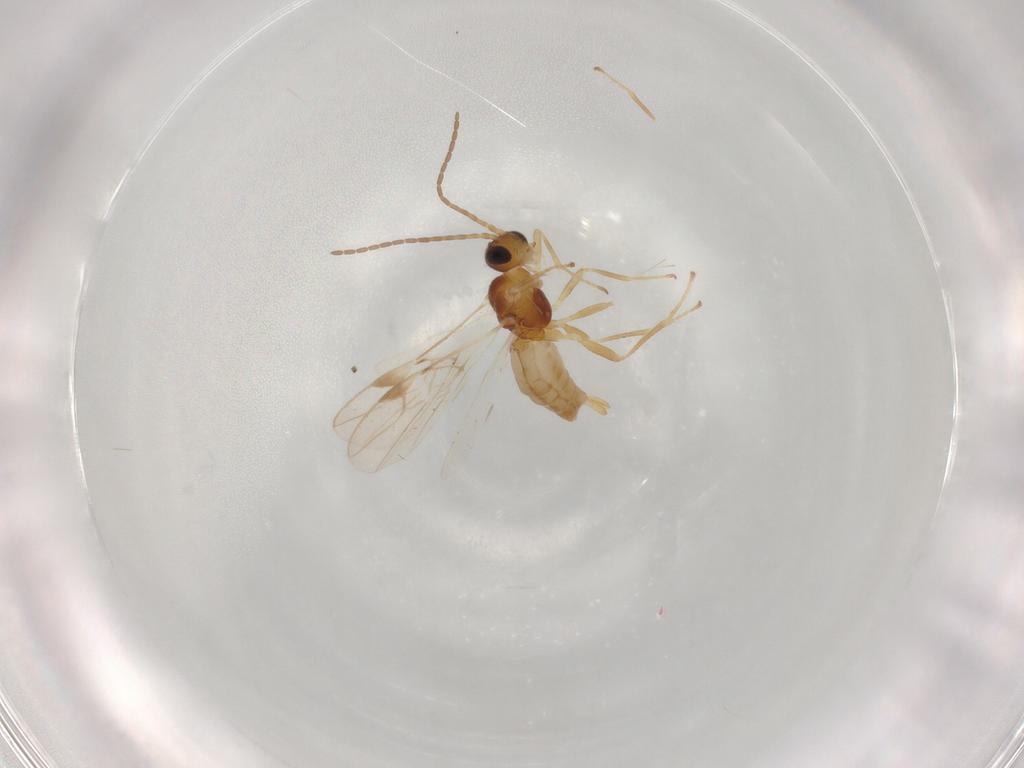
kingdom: Animalia
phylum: Arthropoda
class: Insecta
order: Hymenoptera
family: Braconidae
